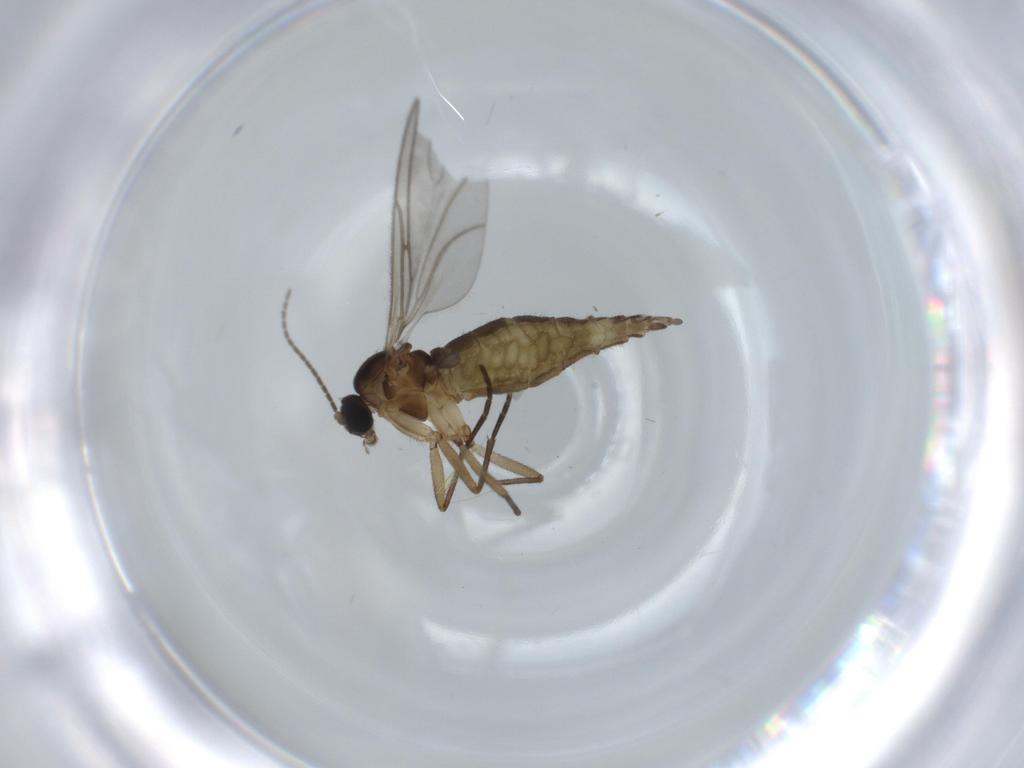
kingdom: Animalia
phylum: Arthropoda
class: Insecta
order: Diptera
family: Sciaridae
